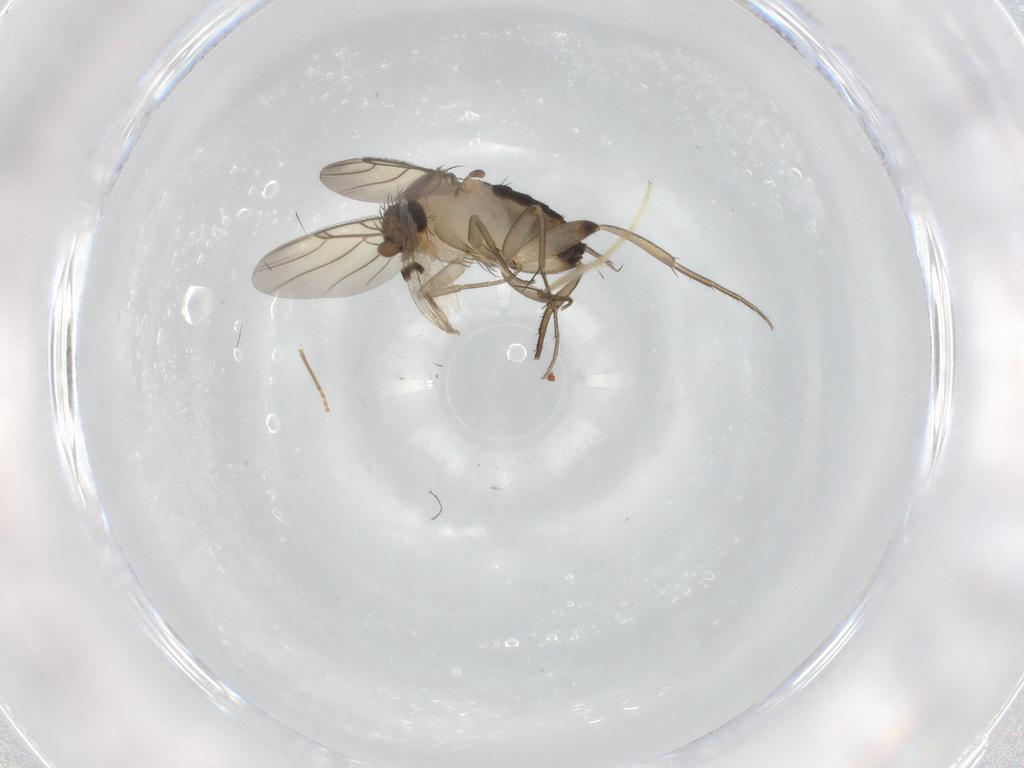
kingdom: Animalia
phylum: Arthropoda
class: Insecta
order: Diptera
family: Phoridae
